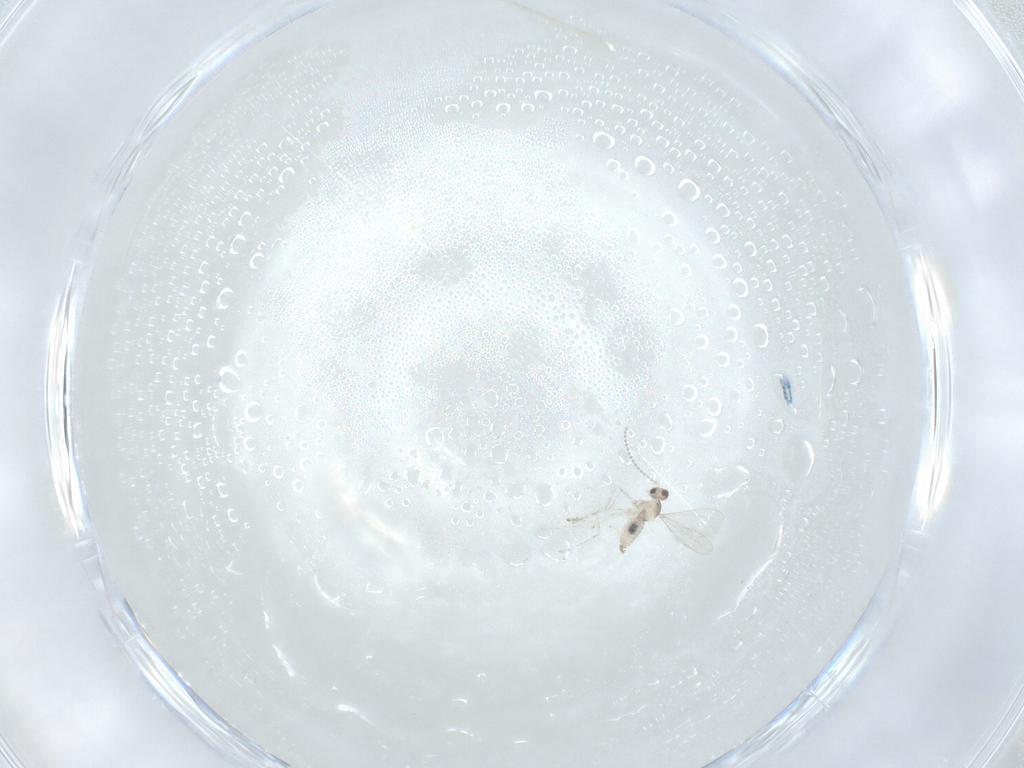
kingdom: Animalia
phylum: Arthropoda
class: Insecta
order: Diptera
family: Cecidomyiidae
